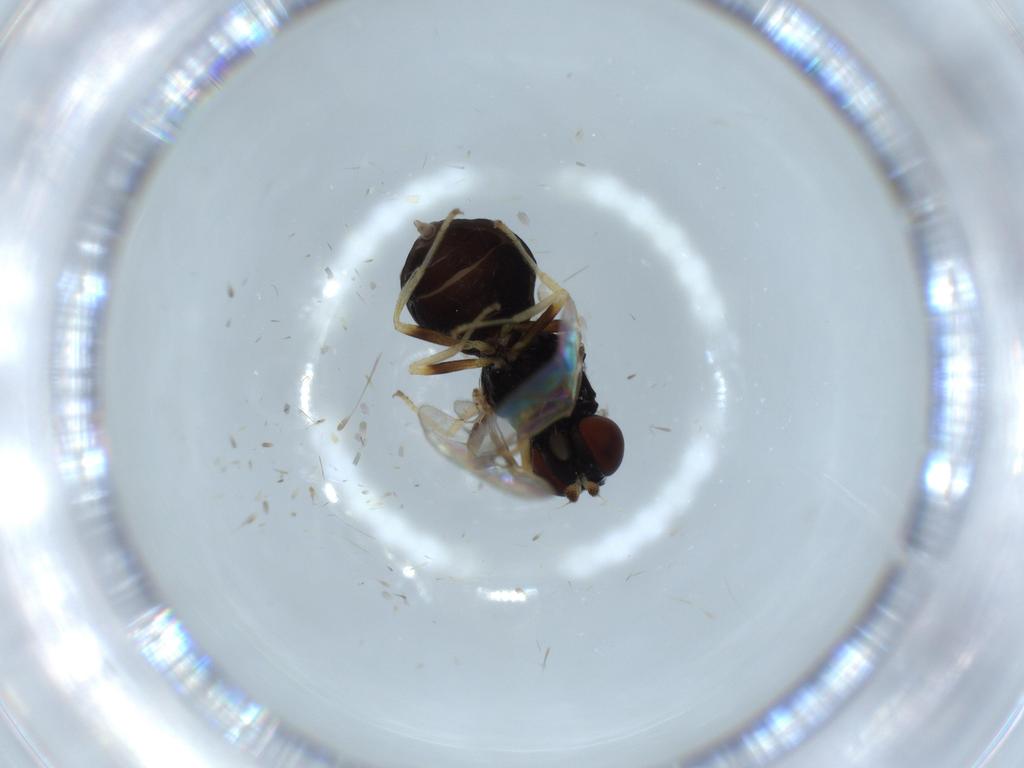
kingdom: Animalia
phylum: Arthropoda
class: Insecta
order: Diptera
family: Stratiomyidae
